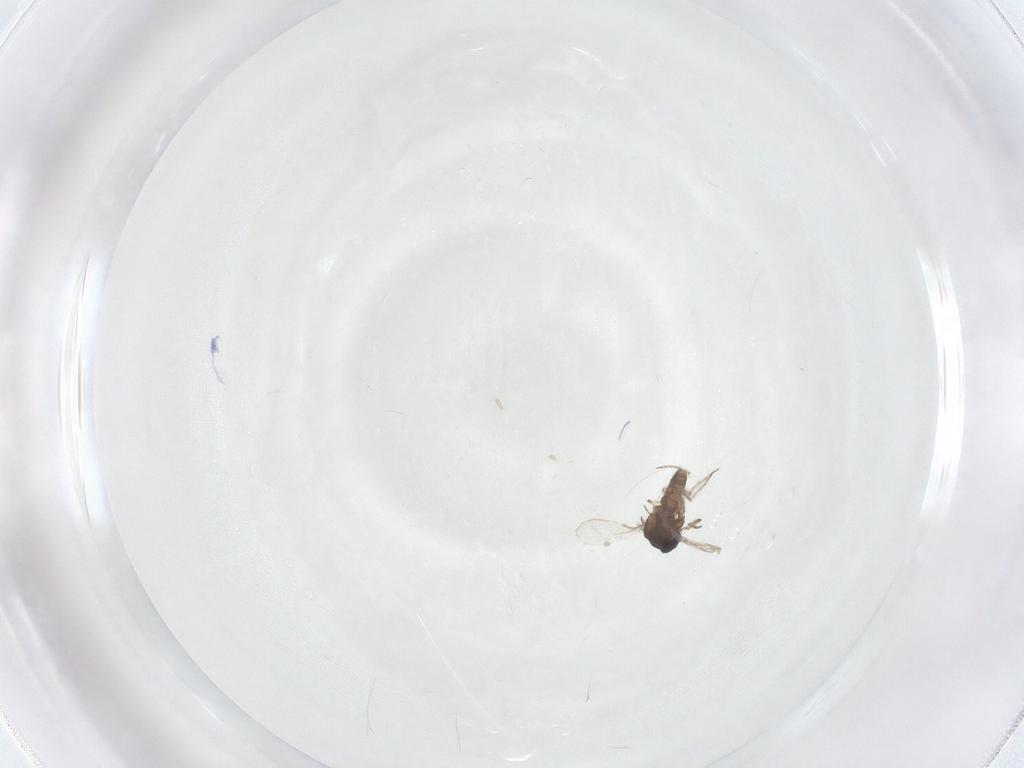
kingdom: Animalia
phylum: Arthropoda
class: Insecta
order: Diptera
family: Ceratopogonidae
